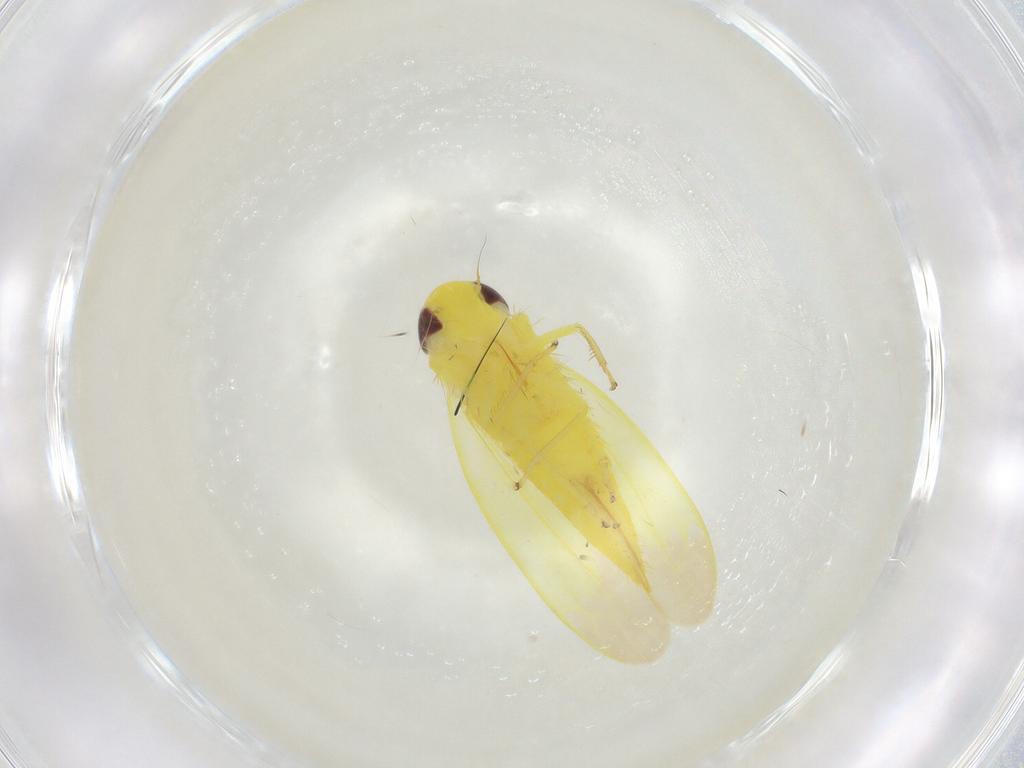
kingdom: Animalia
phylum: Arthropoda
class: Insecta
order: Hemiptera
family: Cicadellidae
